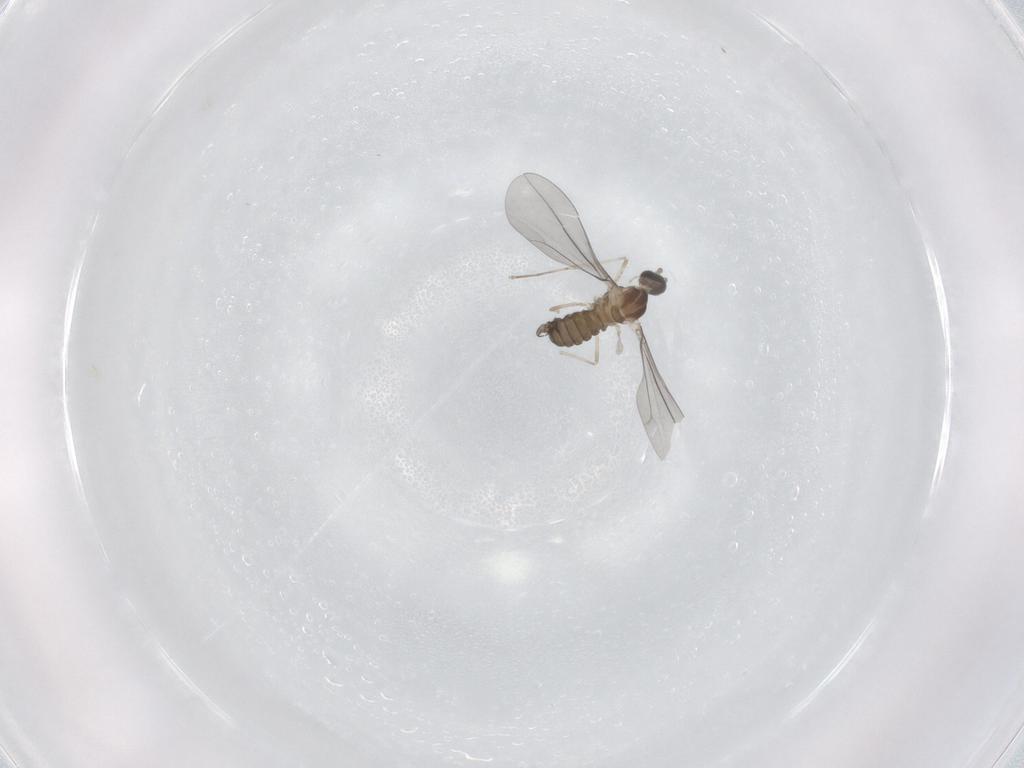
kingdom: Animalia
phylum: Arthropoda
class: Insecta
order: Diptera
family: Cecidomyiidae
